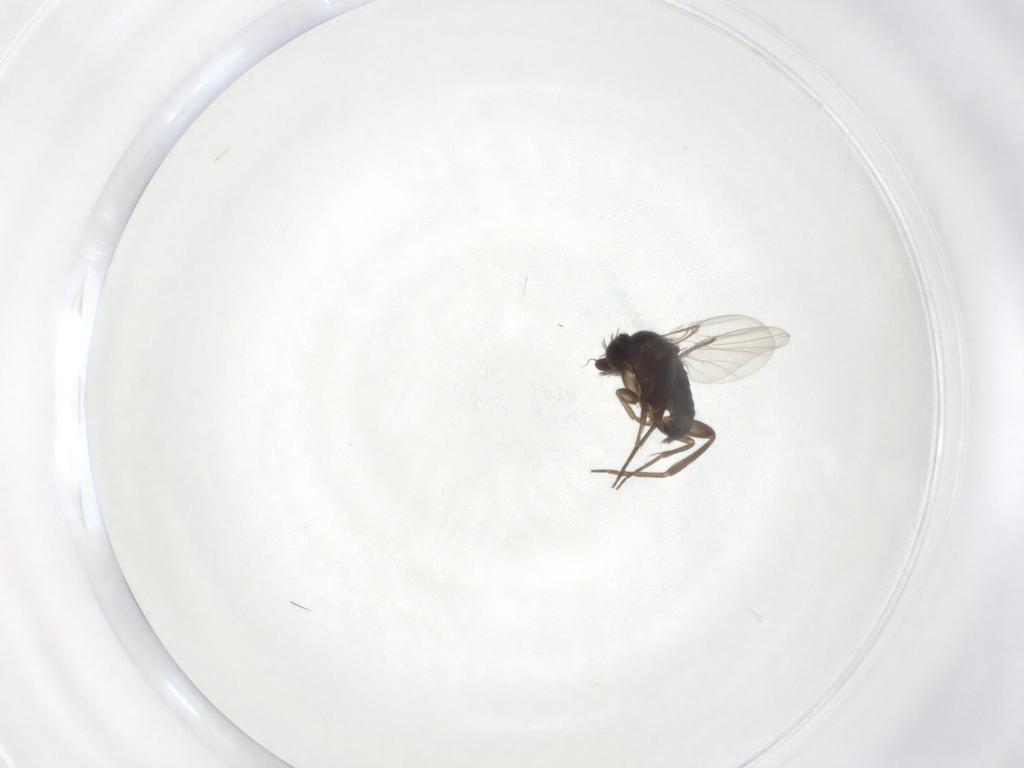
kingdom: Animalia
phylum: Arthropoda
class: Insecta
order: Diptera
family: Cecidomyiidae
